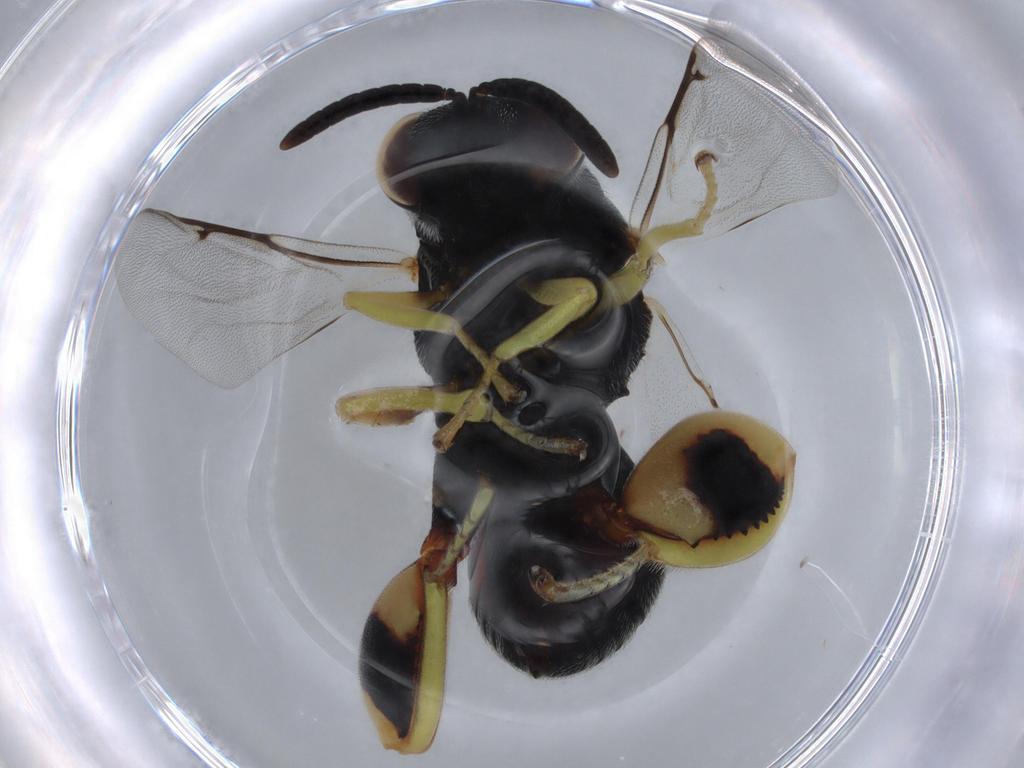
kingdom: Animalia
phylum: Arthropoda
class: Insecta
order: Hymenoptera
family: Chalcididae
